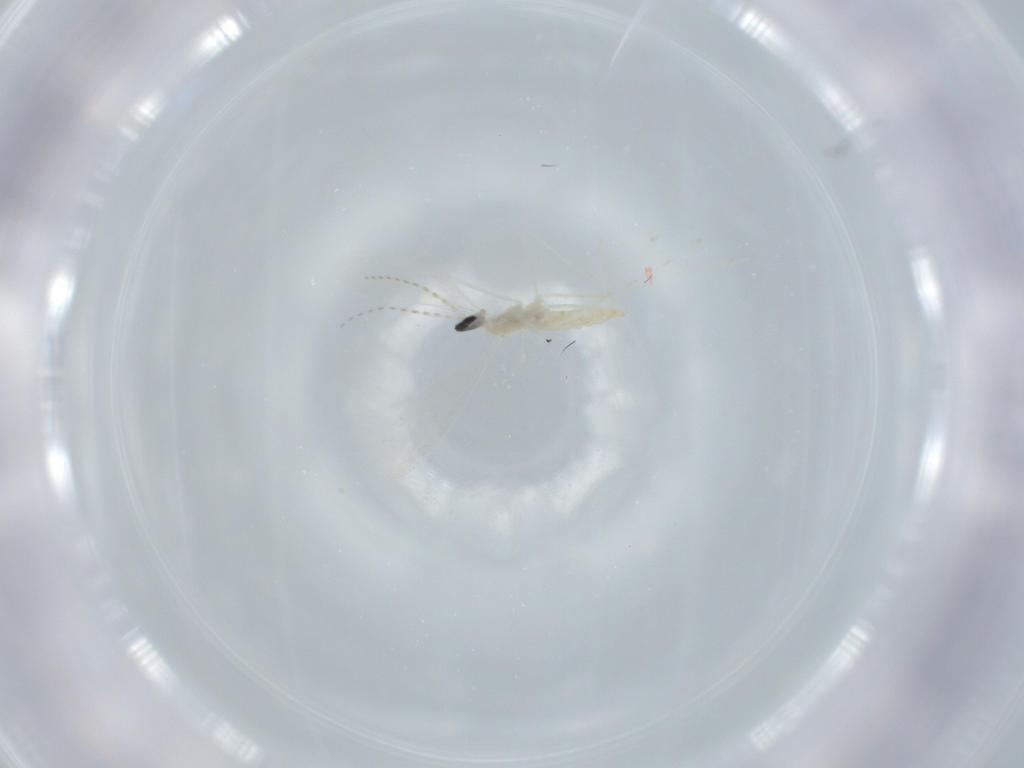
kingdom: Animalia
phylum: Arthropoda
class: Insecta
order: Diptera
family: Cecidomyiidae
